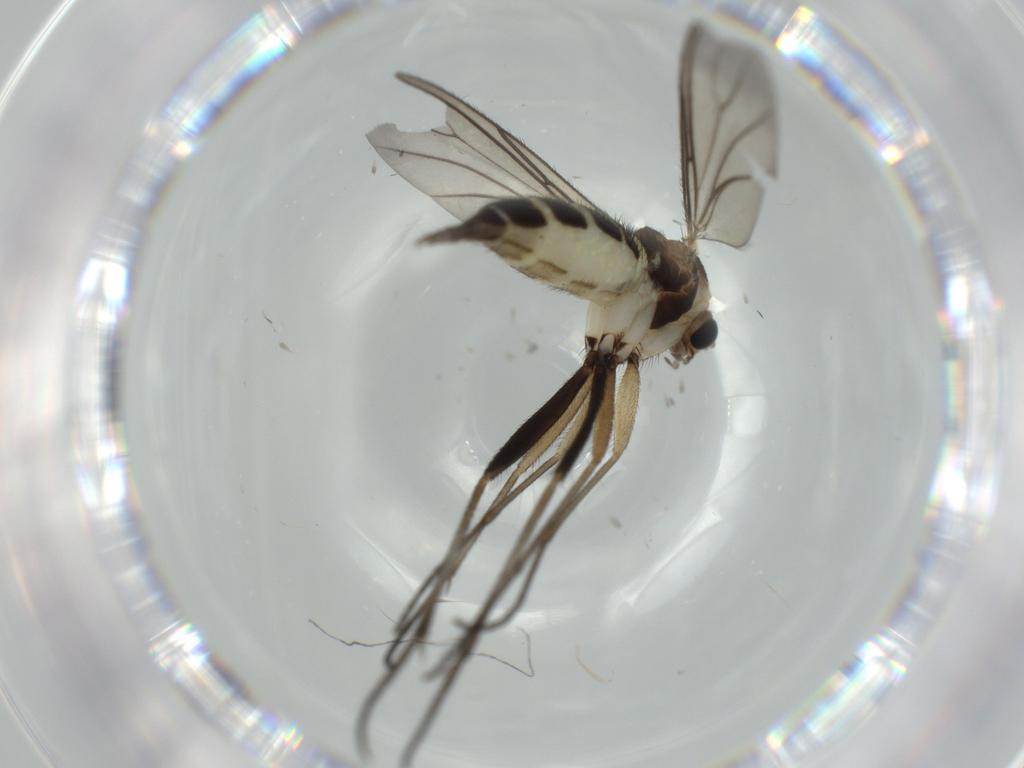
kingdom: Animalia
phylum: Arthropoda
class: Insecta
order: Diptera
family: Sciaridae
